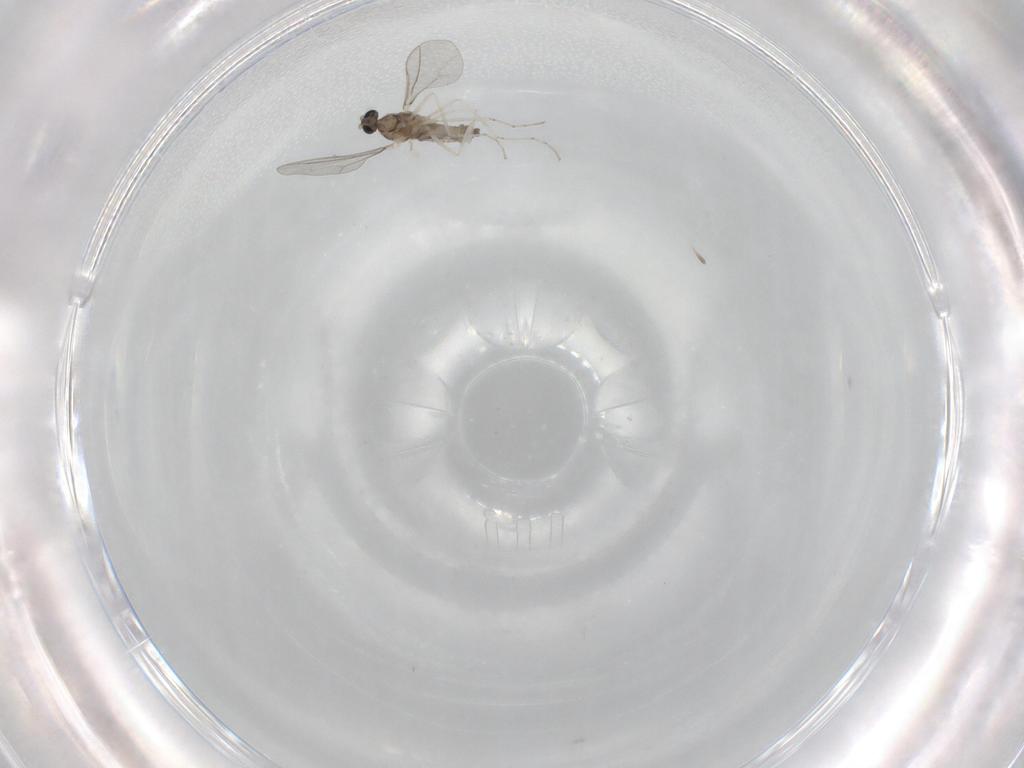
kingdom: Animalia
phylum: Arthropoda
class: Insecta
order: Diptera
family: Cecidomyiidae
